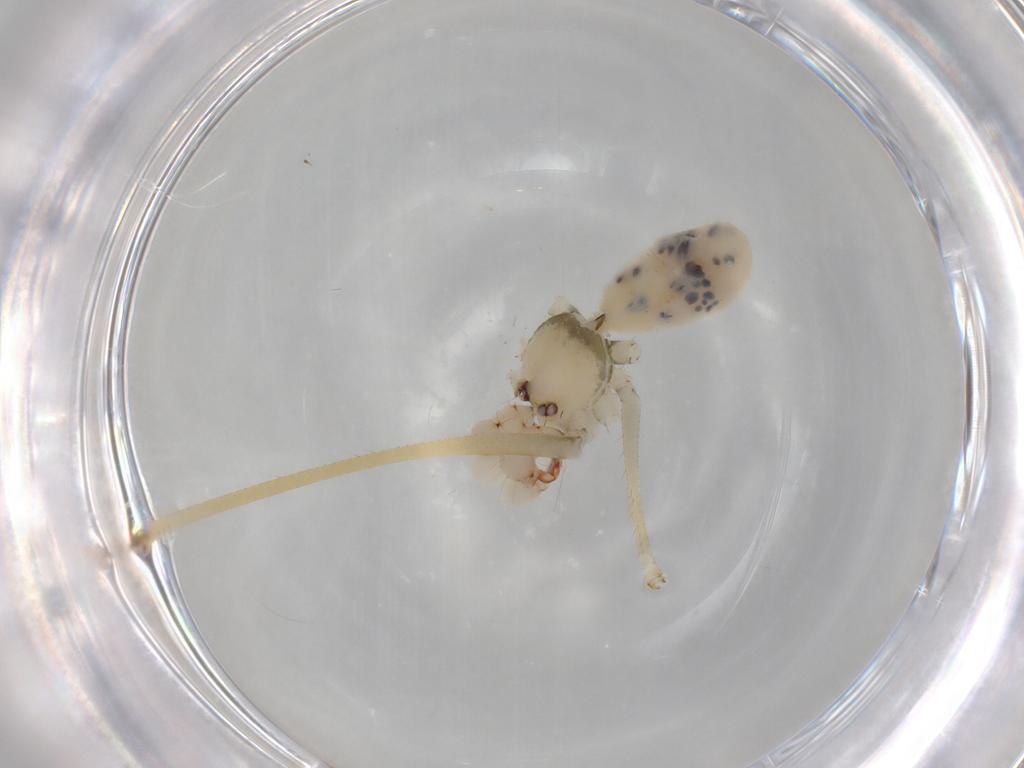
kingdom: Animalia
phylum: Arthropoda
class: Arachnida
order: Araneae
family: Pholcidae
